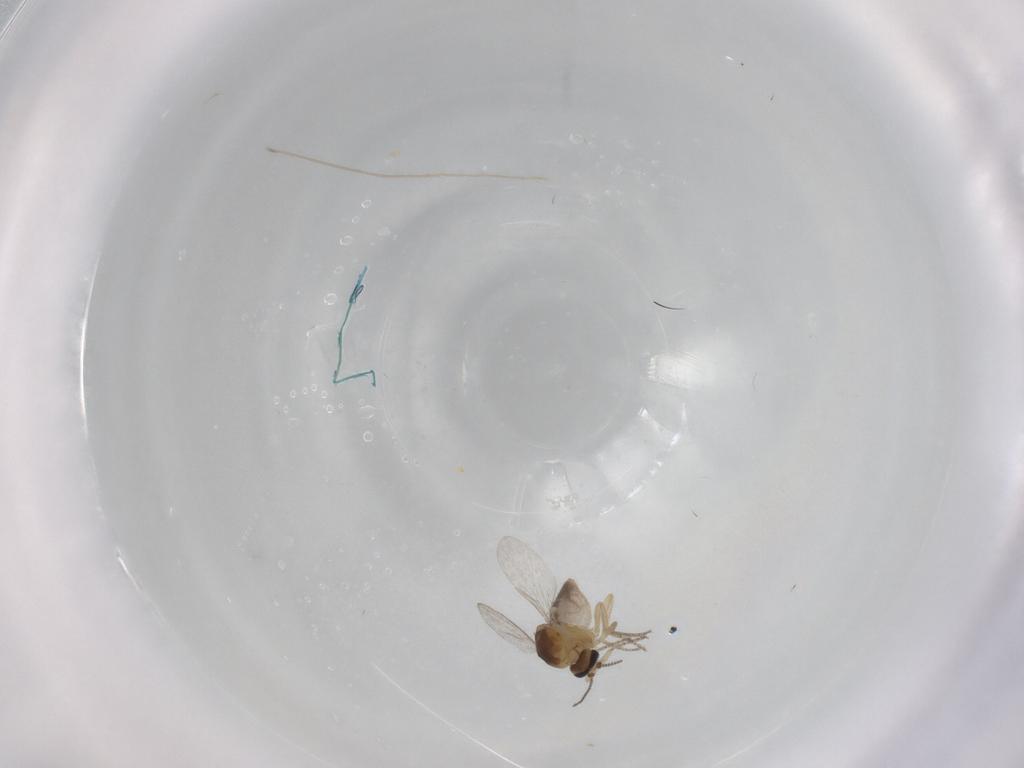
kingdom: Animalia
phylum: Arthropoda
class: Insecta
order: Diptera
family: Ceratopogonidae
